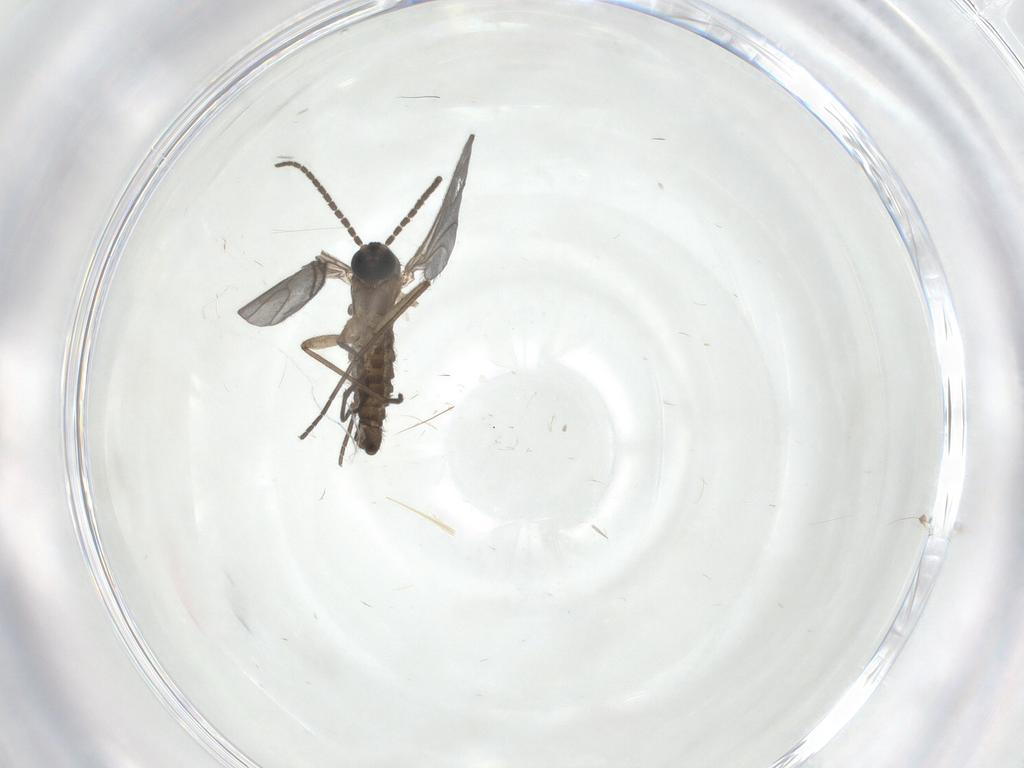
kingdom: Animalia
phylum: Arthropoda
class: Insecta
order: Diptera
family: Sciaridae
